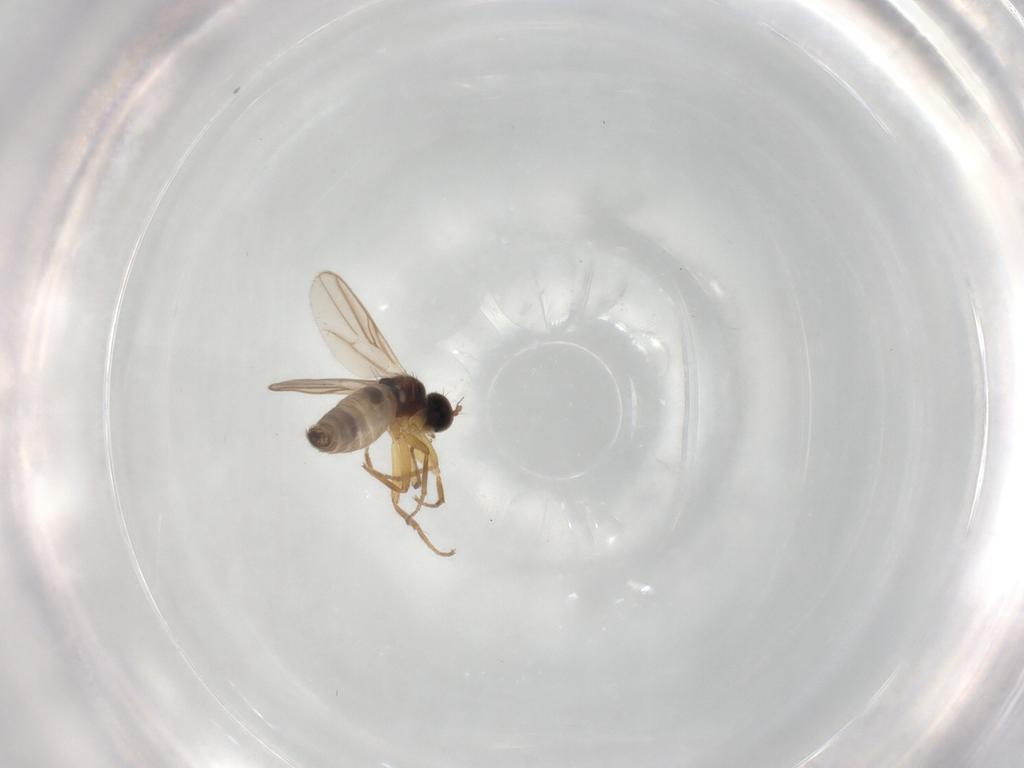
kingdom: Animalia
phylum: Arthropoda
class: Insecta
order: Diptera
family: Hybotidae
